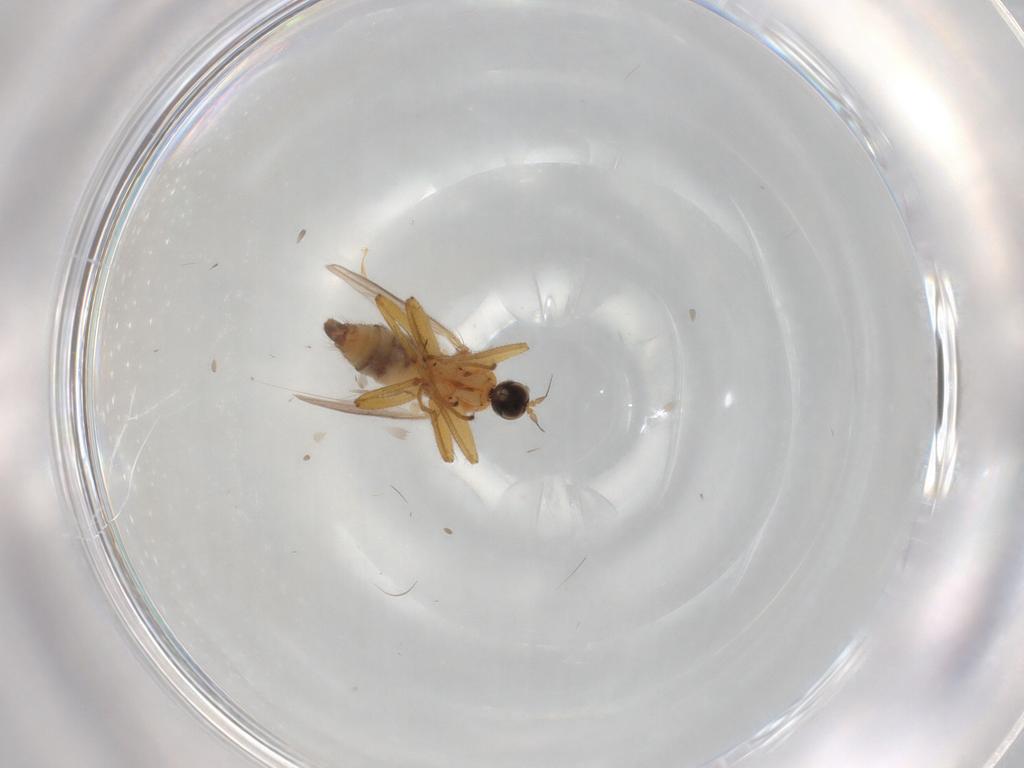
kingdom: Animalia
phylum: Arthropoda
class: Insecta
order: Diptera
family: Hybotidae
